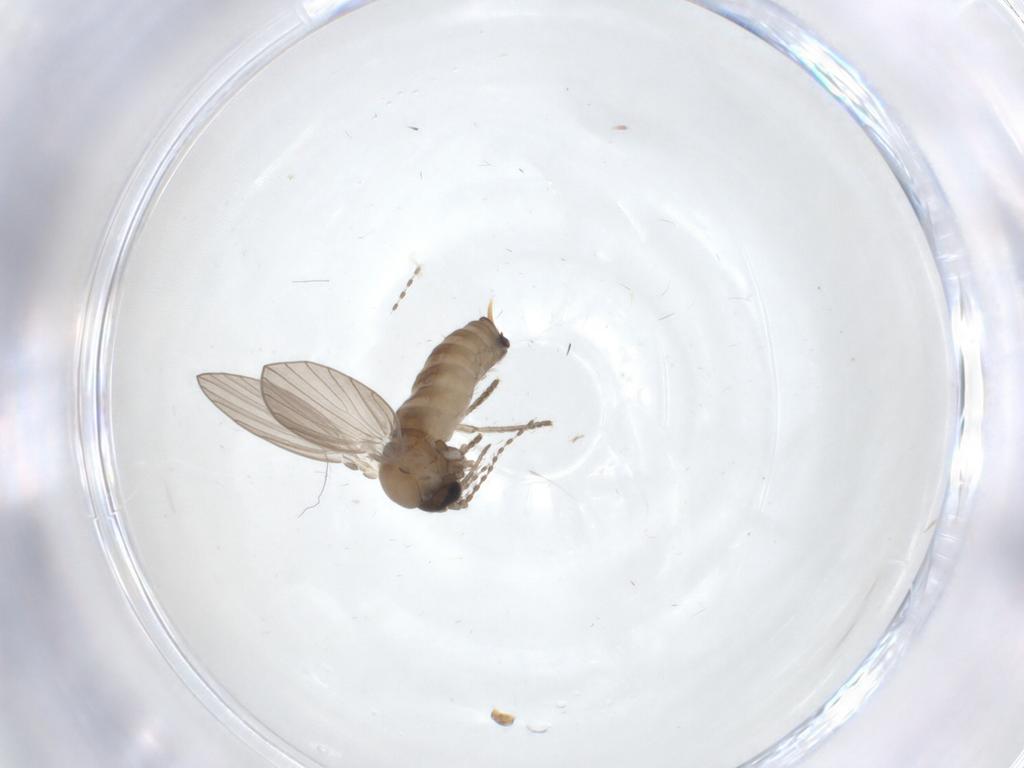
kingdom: Animalia
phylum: Arthropoda
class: Insecta
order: Diptera
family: Psychodidae
